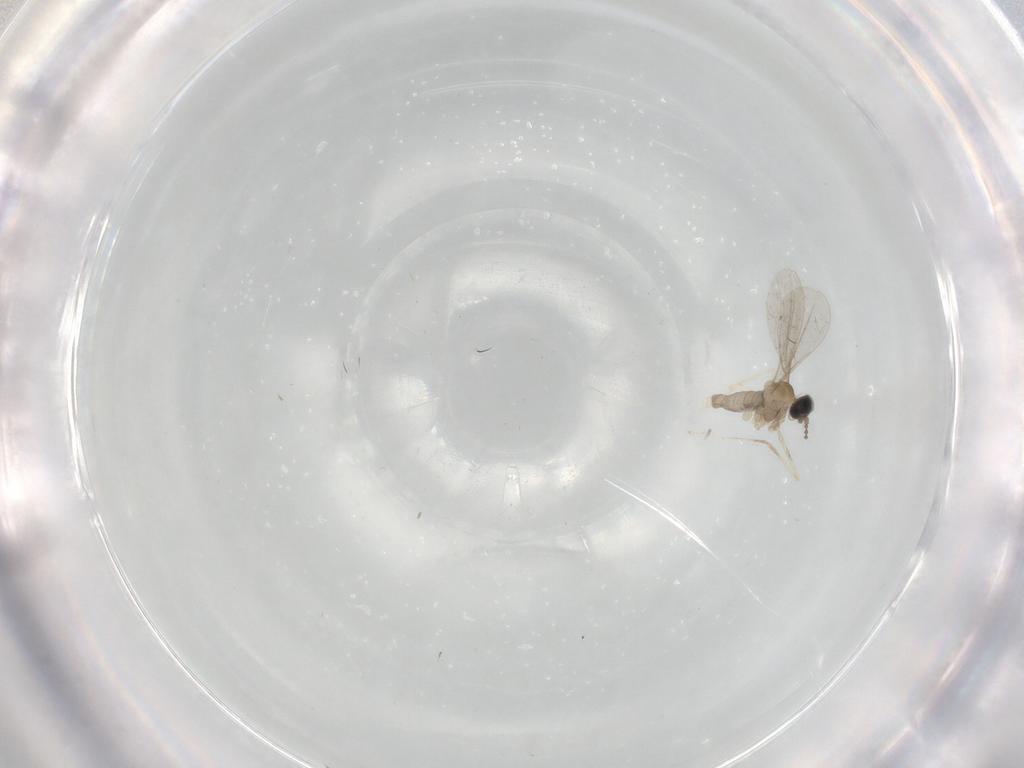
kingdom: Animalia
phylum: Arthropoda
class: Insecta
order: Diptera
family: Cecidomyiidae
